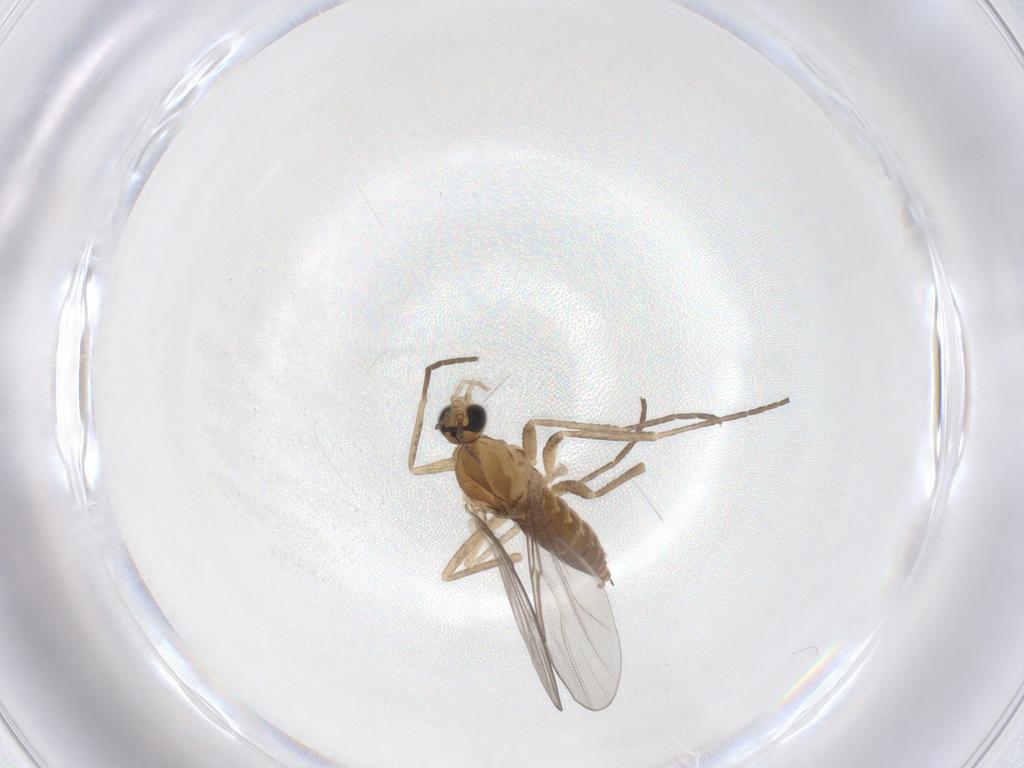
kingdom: Animalia
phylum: Arthropoda
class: Insecta
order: Diptera
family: Cecidomyiidae
